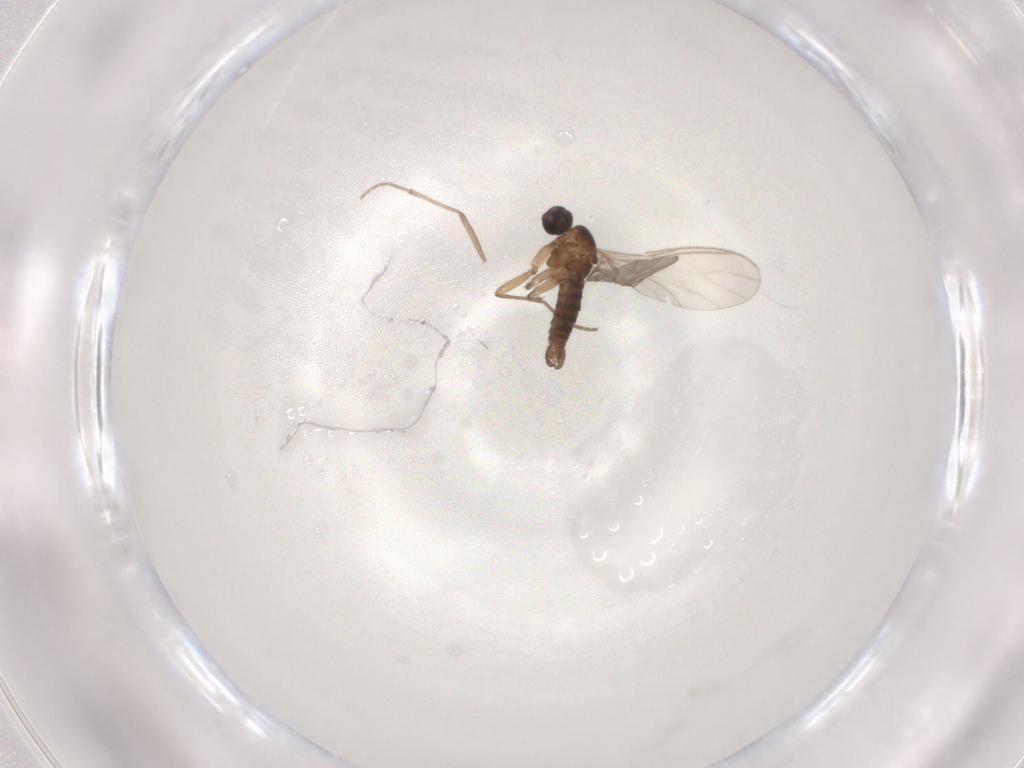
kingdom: Animalia
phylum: Arthropoda
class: Insecta
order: Diptera
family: Sciaridae
